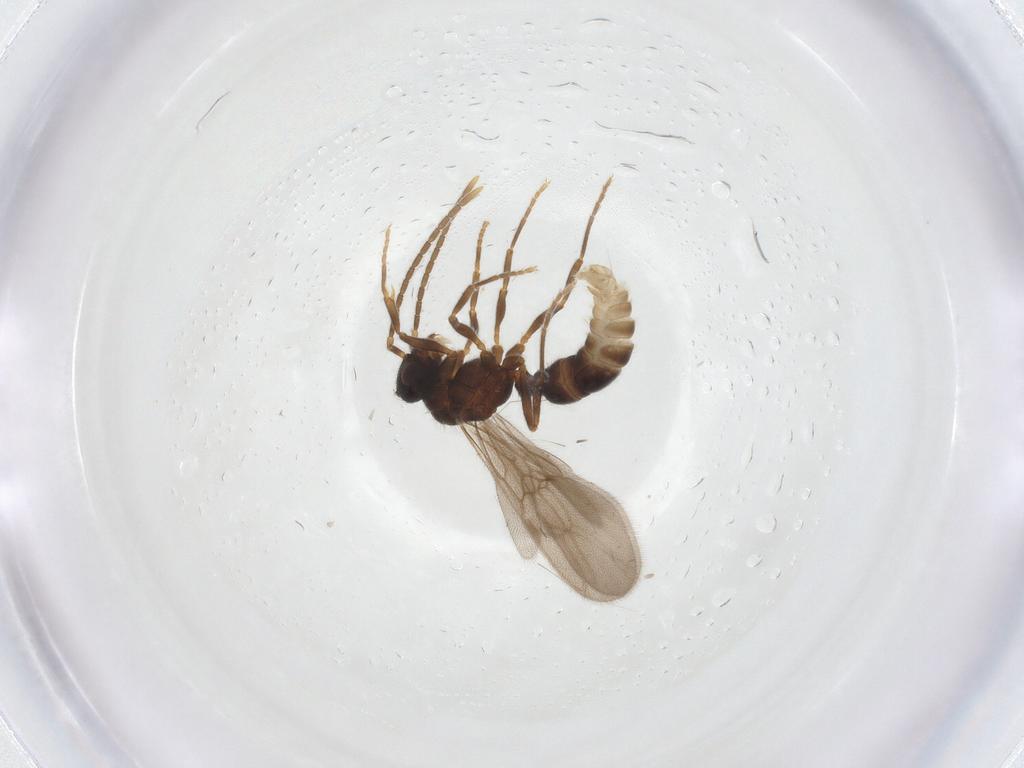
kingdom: Animalia
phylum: Arthropoda
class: Insecta
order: Hymenoptera
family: Formicidae
